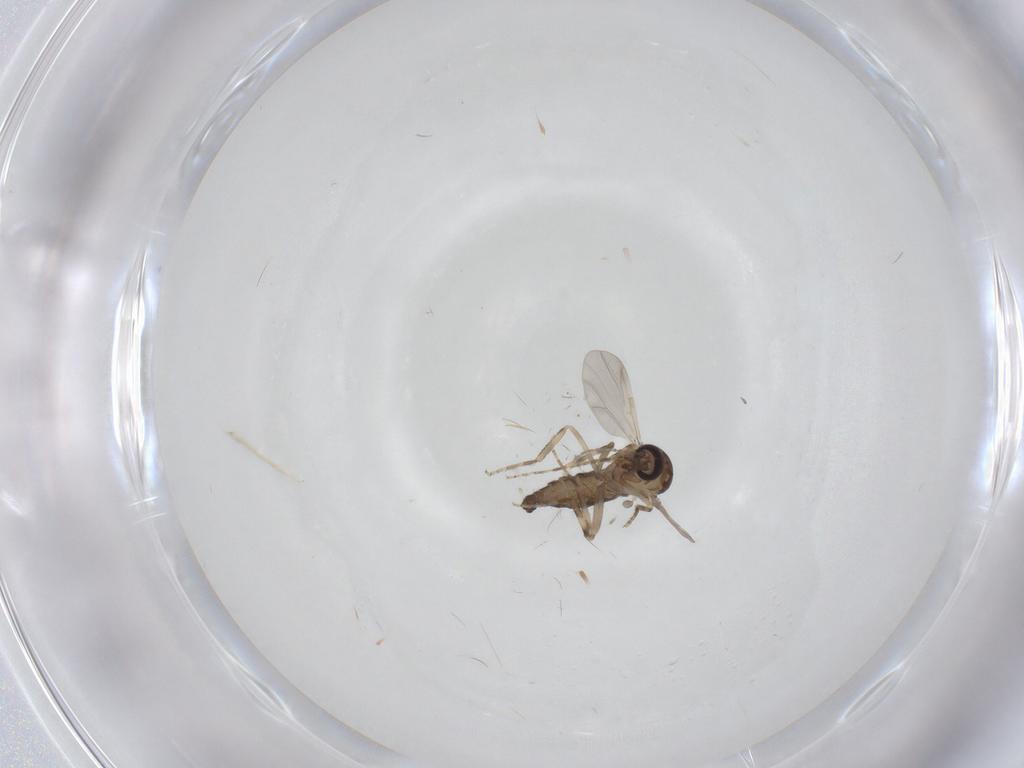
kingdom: Animalia
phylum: Arthropoda
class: Insecta
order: Diptera
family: Ceratopogonidae
